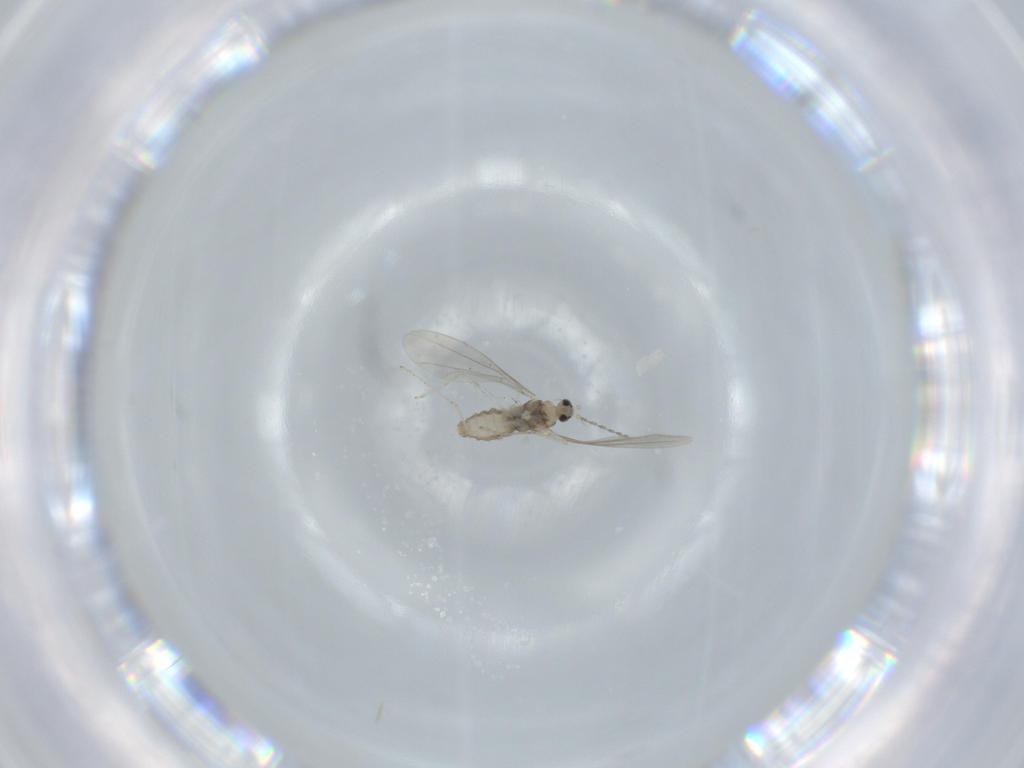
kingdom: Animalia
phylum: Arthropoda
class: Insecta
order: Diptera
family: Cecidomyiidae
